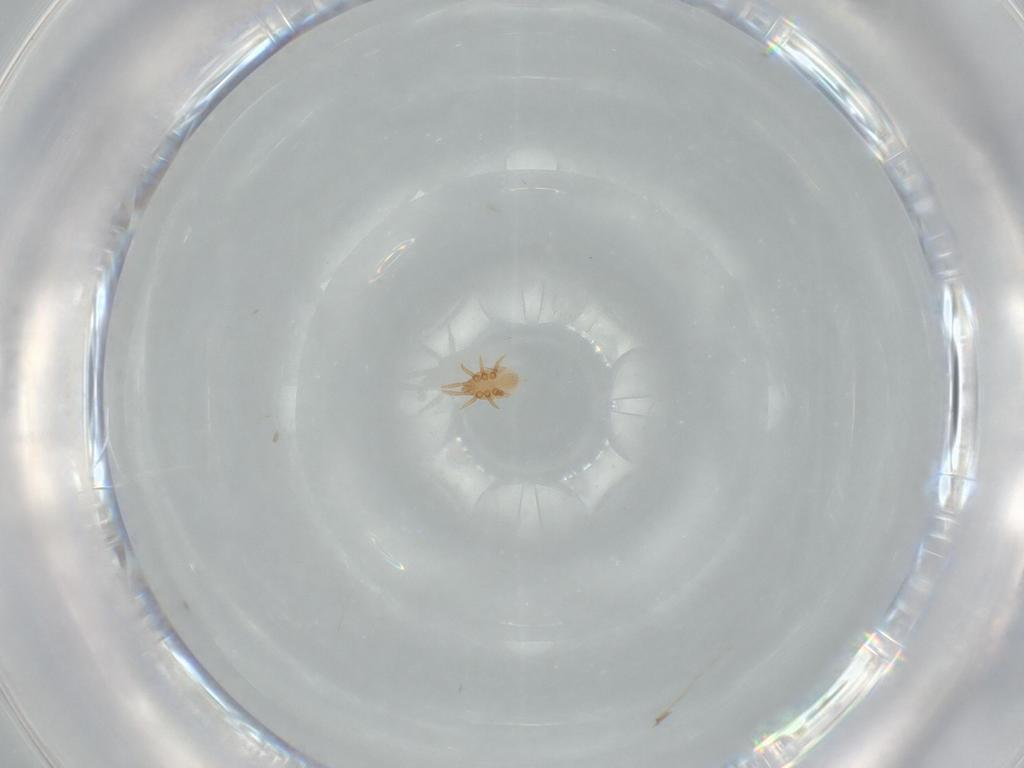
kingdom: Animalia
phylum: Arthropoda
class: Arachnida
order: Mesostigmata
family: Dinychidae
